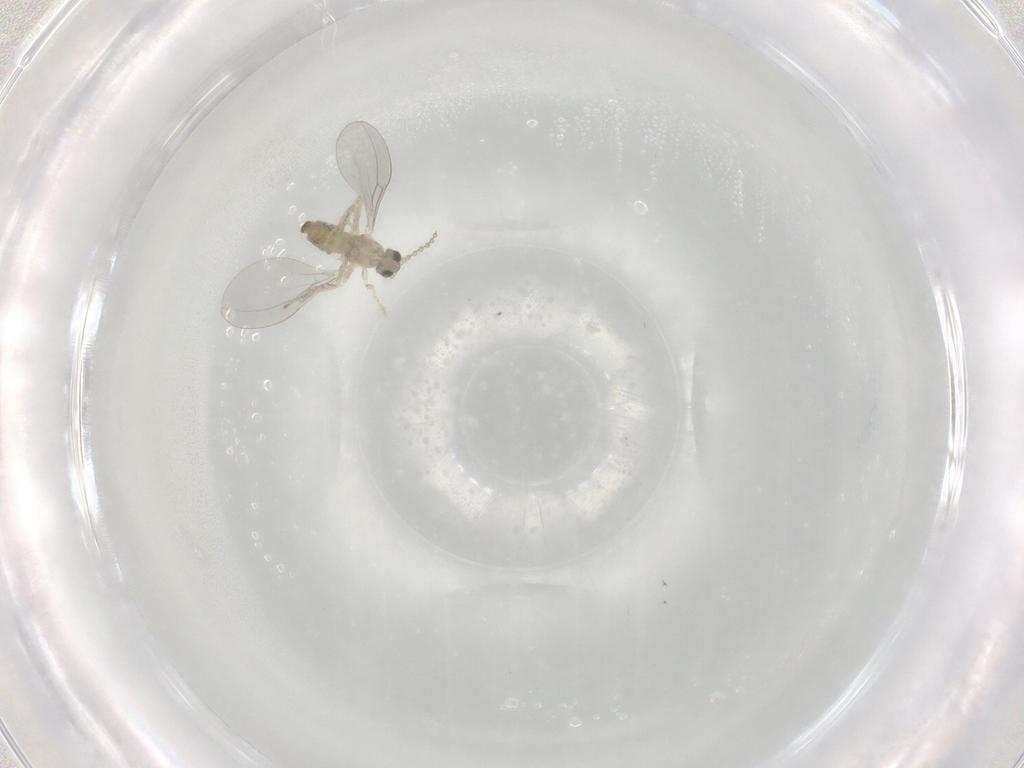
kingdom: Animalia
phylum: Arthropoda
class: Insecta
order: Diptera
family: Cecidomyiidae
